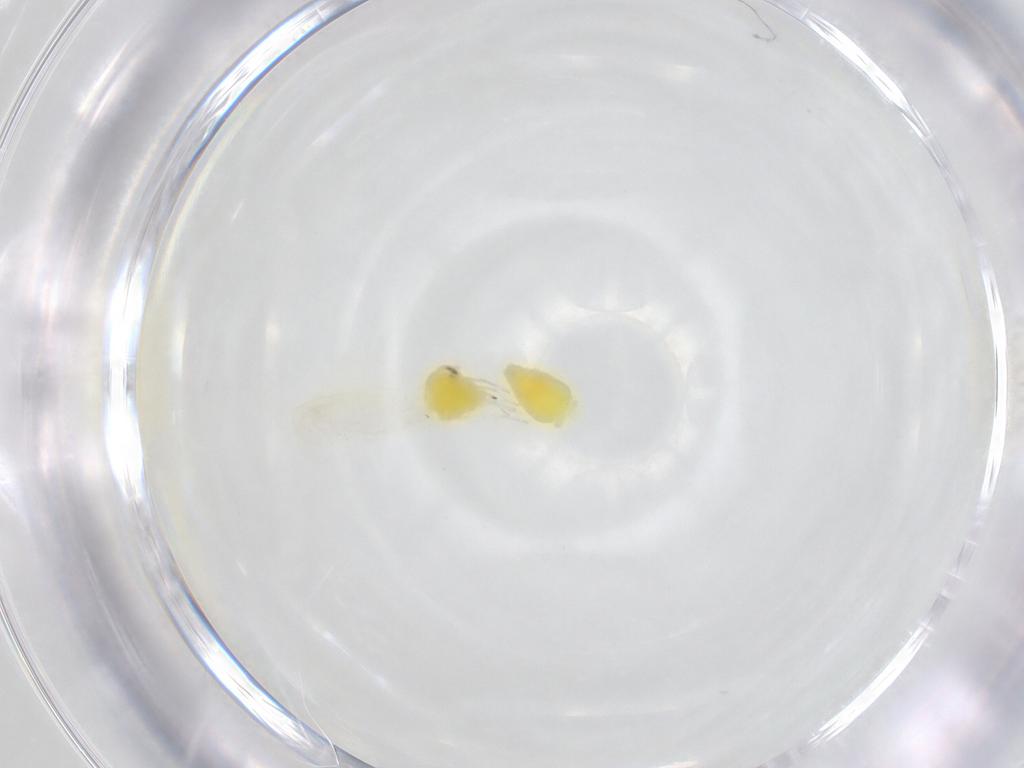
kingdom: Animalia
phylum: Arthropoda
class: Insecta
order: Hemiptera
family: Aleyrodidae
